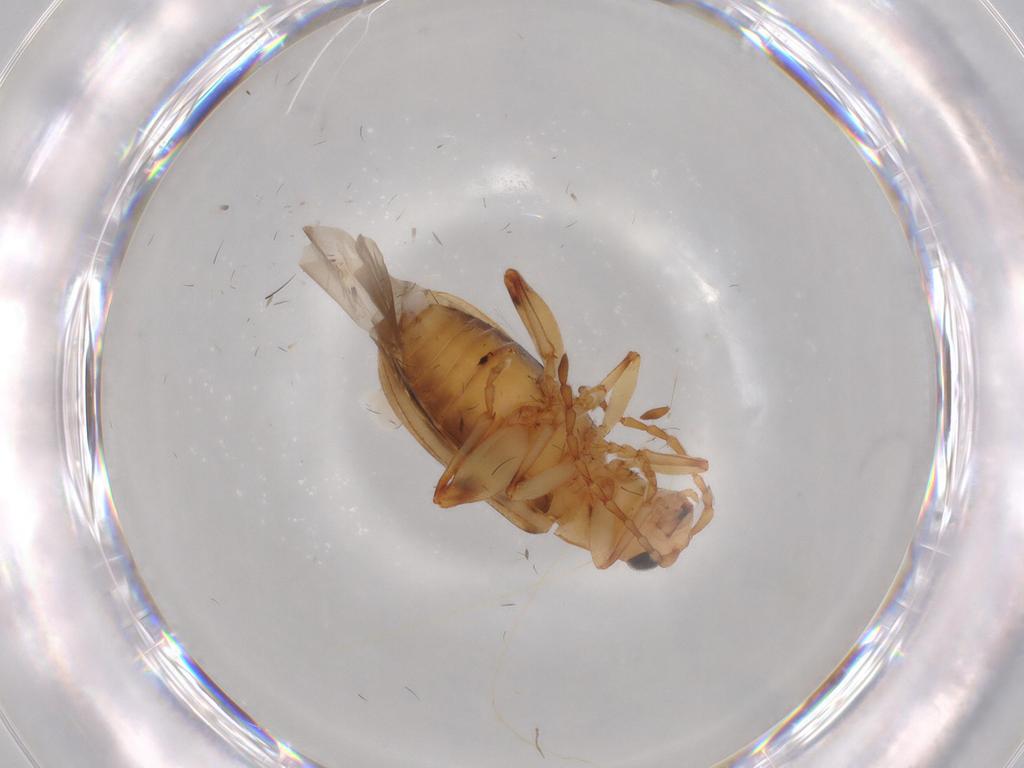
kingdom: Animalia
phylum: Arthropoda
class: Insecta
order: Coleoptera
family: Chrysomelidae
